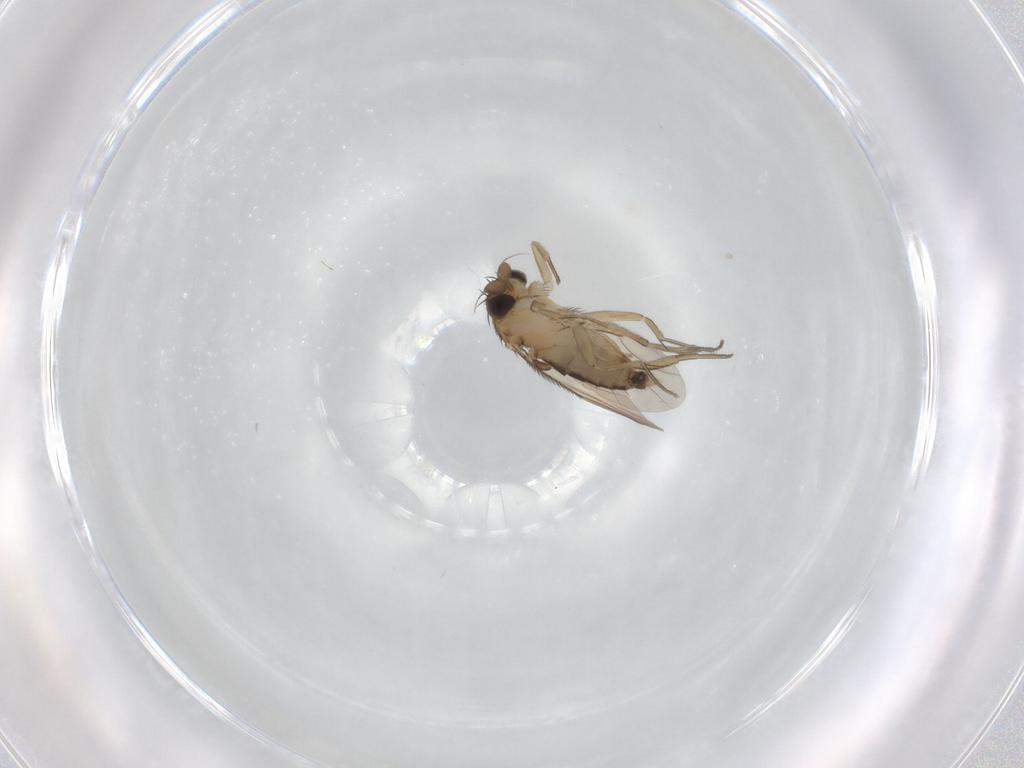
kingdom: Animalia
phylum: Arthropoda
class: Insecta
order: Diptera
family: Phoridae
